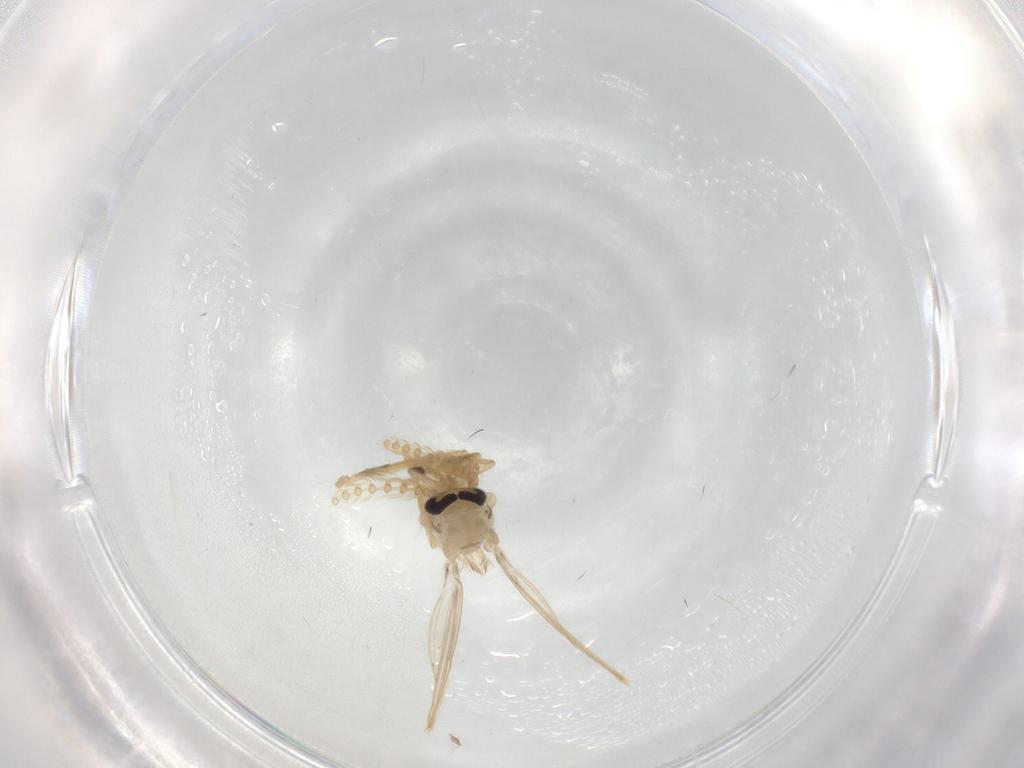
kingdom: Animalia
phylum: Arthropoda
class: Insecta
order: Diptera
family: Psychodidae
